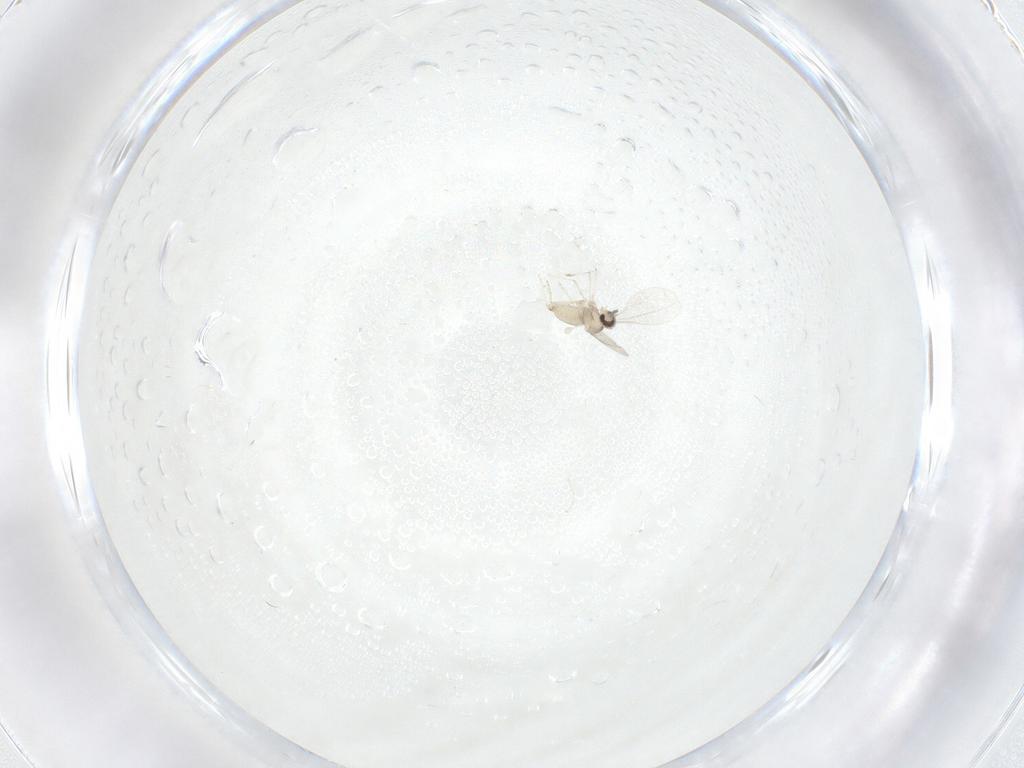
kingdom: Animalia
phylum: Arthropoda
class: Insecta
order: Diptera
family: Cecidomyiidae
